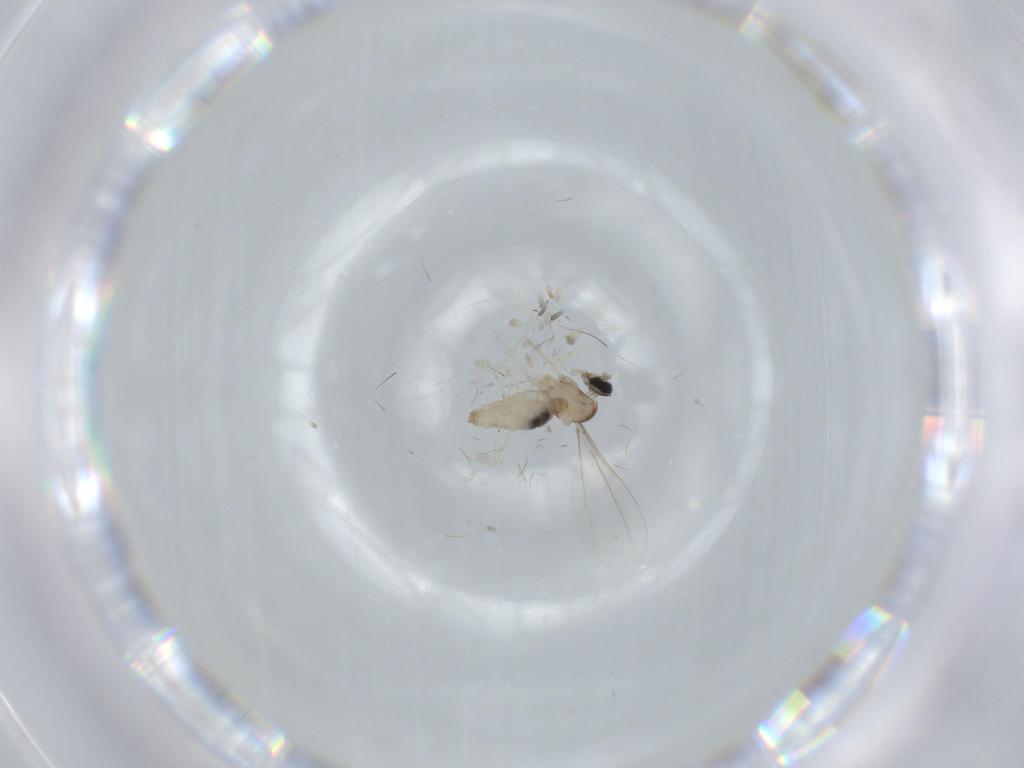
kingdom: Animalia
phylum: Arthropoda
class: Insecta
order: Diptera
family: Cecidomyiidae
